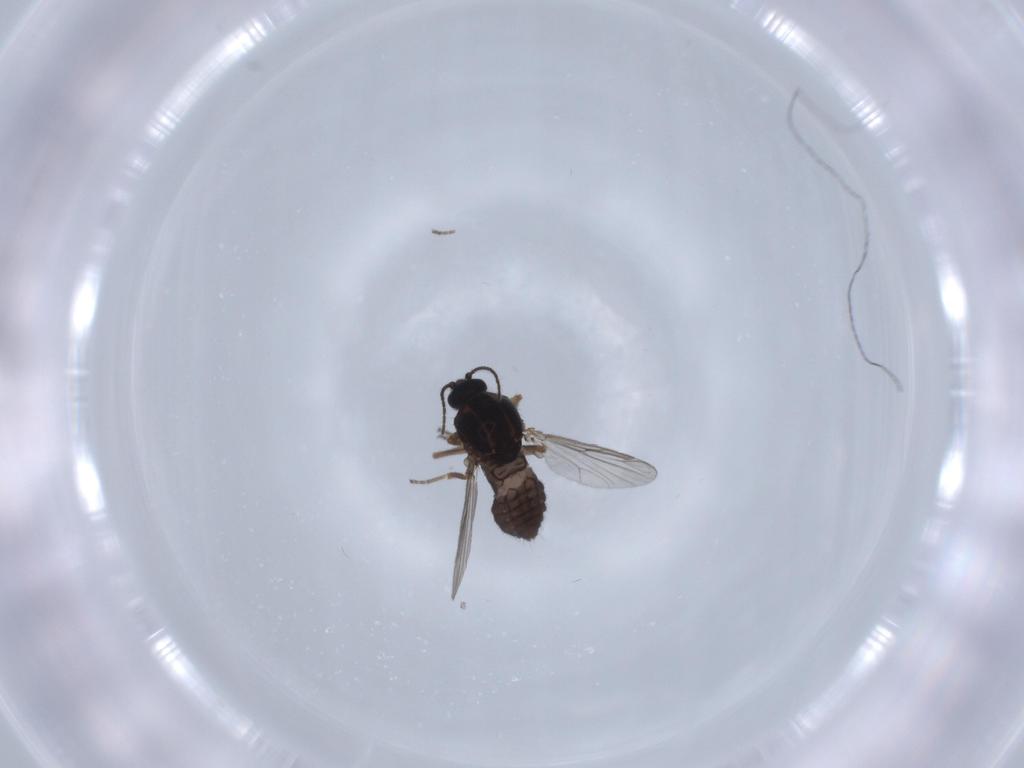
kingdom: Animalia
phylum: Arthropoda
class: Insecta
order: Diptera
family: Ceratopogonidae
